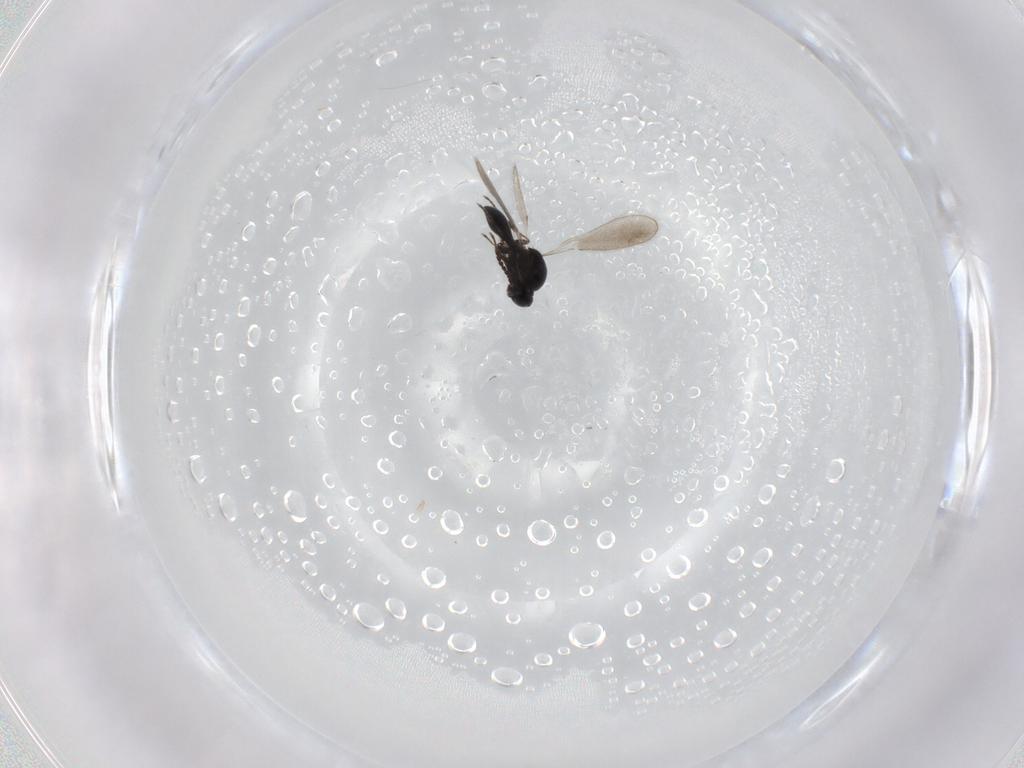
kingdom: Animalia
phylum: Arthropoda
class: Insecta
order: Hymenoptera
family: Platygastridae
